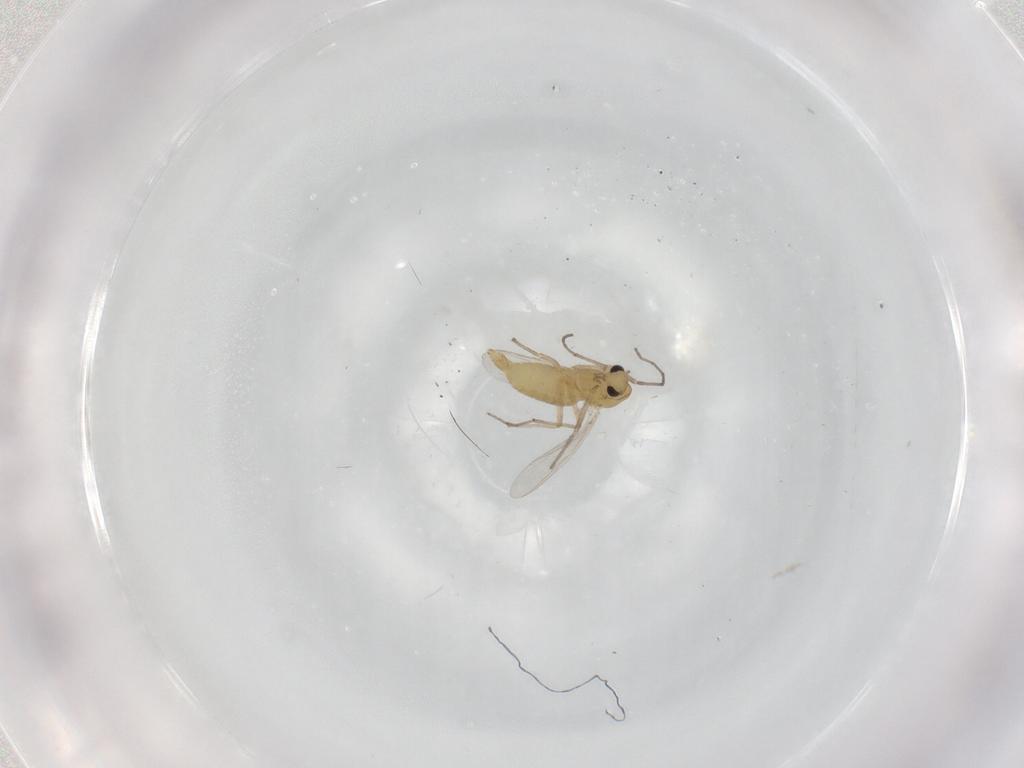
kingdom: Animalia
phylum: Arthropoda
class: Insecta
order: Diptera
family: Chironomidae
